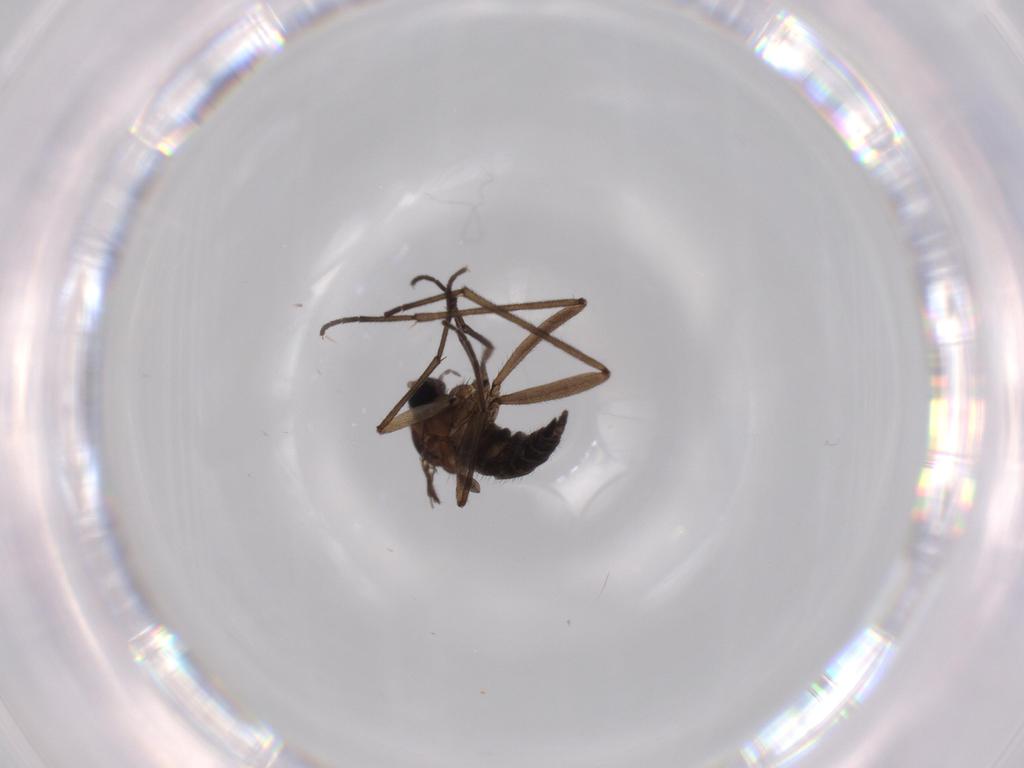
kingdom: Animalia
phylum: Arthropoda
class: Insecta
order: Diptera
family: Sciaridae
